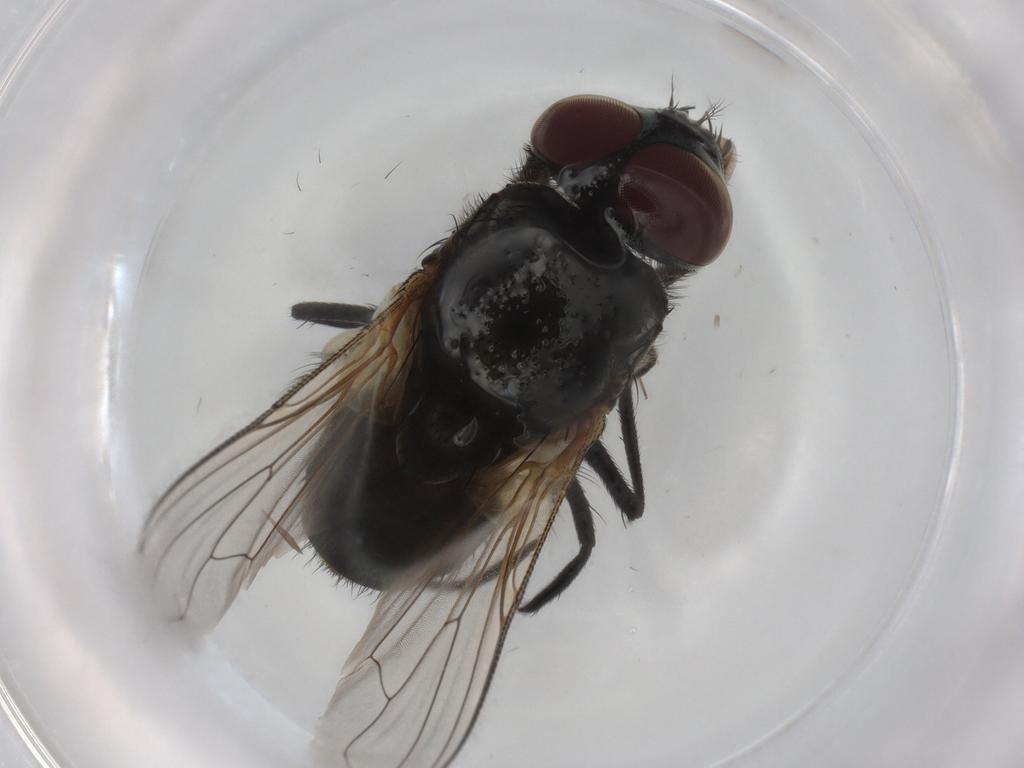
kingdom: Animalia
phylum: Arthropoda
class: Insecta
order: Diptera
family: Muscidae
